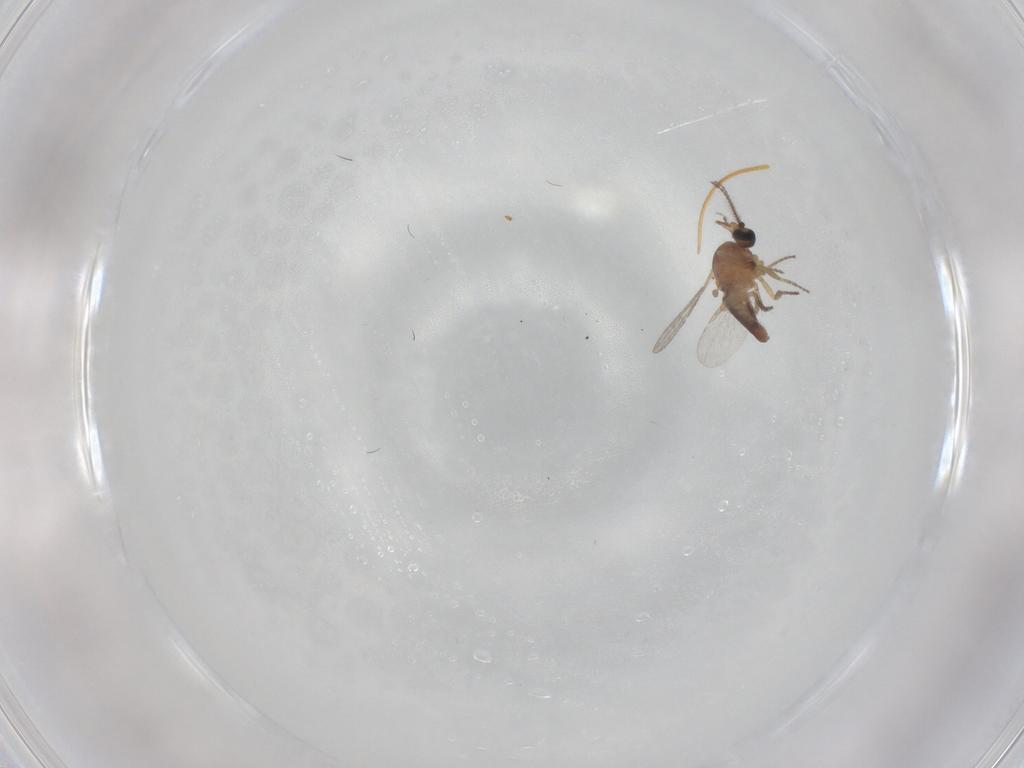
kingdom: Animalia
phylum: Arthropoda
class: Insecta
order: Diptera
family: Ceratopogonidae
